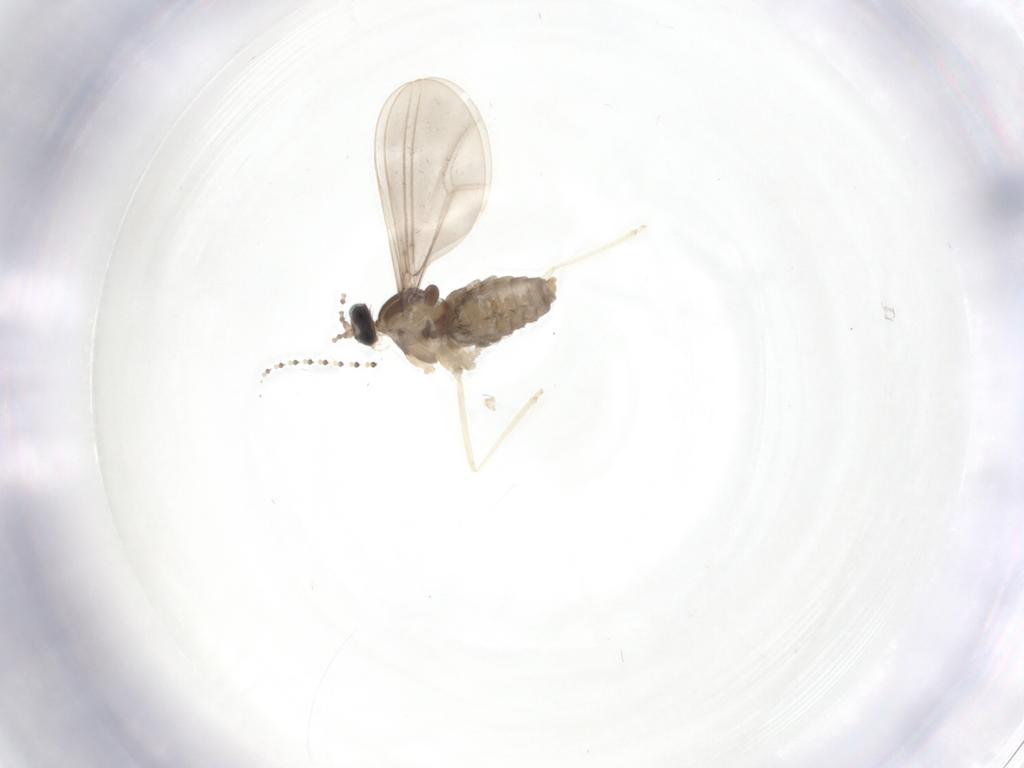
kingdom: Animalia
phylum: Arthropoda
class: Insecta
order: Diptera
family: Cecidomyiidae
